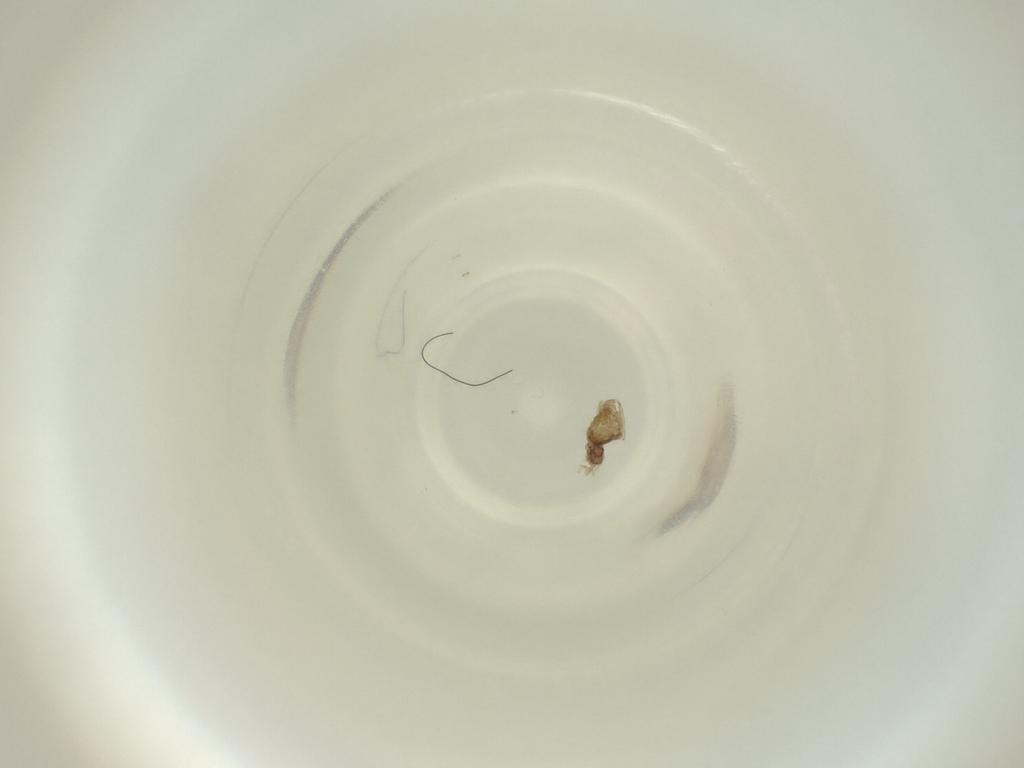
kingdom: Animalia
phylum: Arthropoda
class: Insecta
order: Diptera
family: Cecidomyiidae
